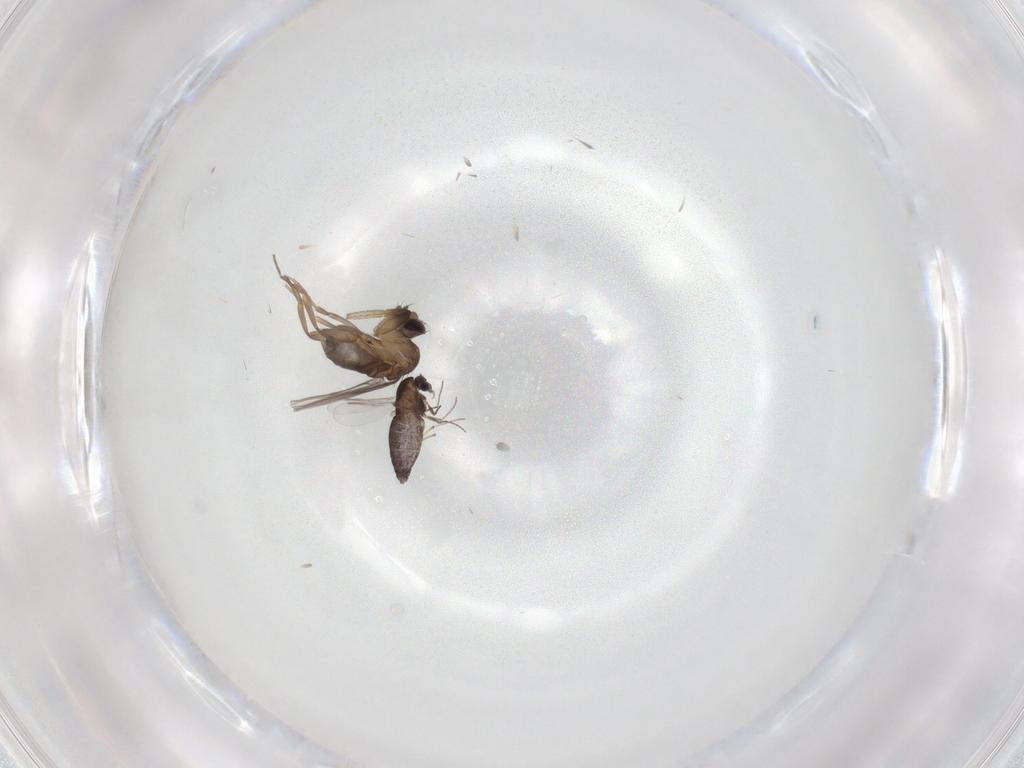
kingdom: Animalia
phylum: Arthropoda
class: Insecta
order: Diptera
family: Chironomidae
